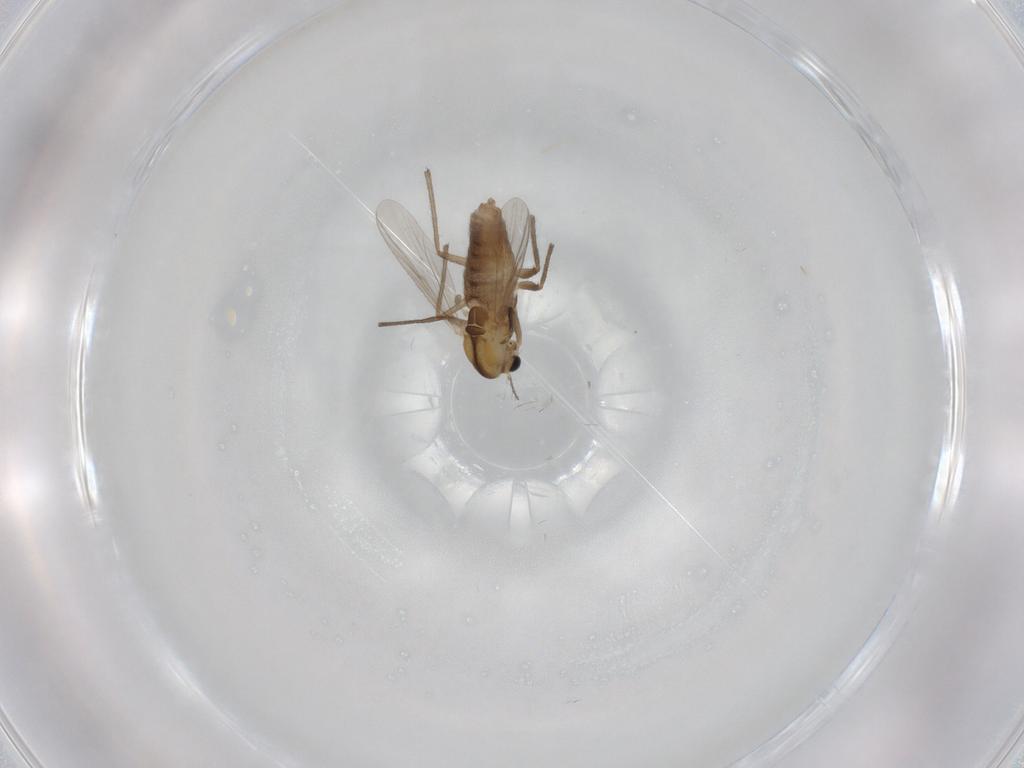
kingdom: Animalia
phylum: Arthropoda
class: Insecta
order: Diptera
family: Chironomidae
